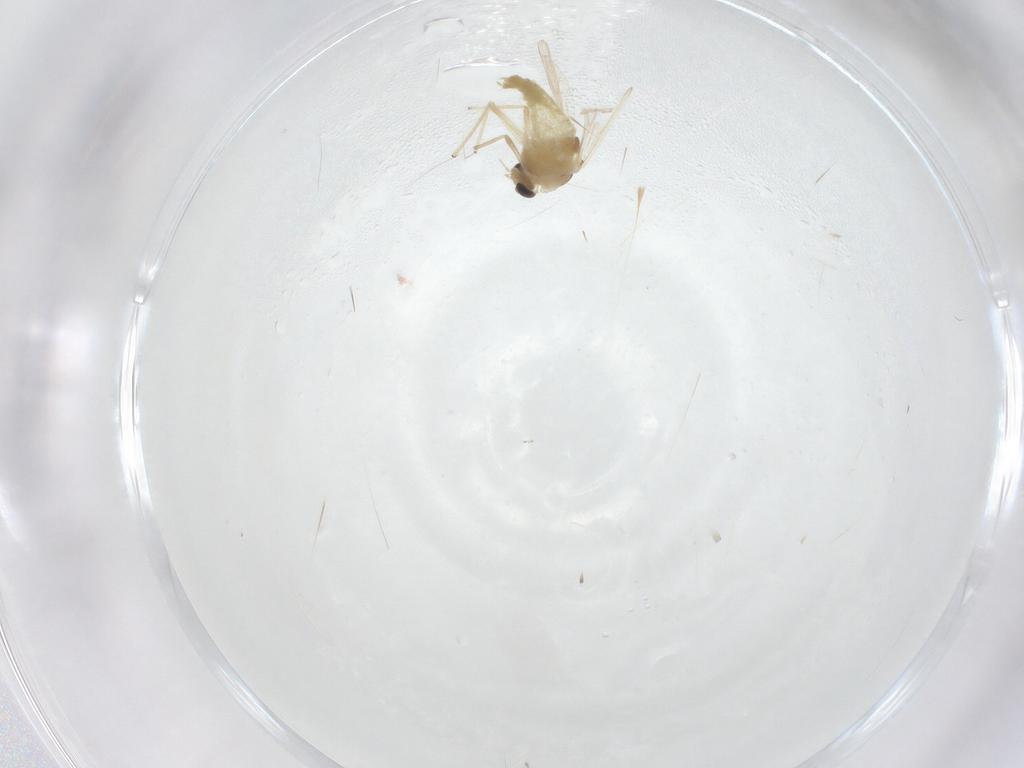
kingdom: Animalia
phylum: Arthropoda
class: Insecta
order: Diptera
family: Chironomidae
